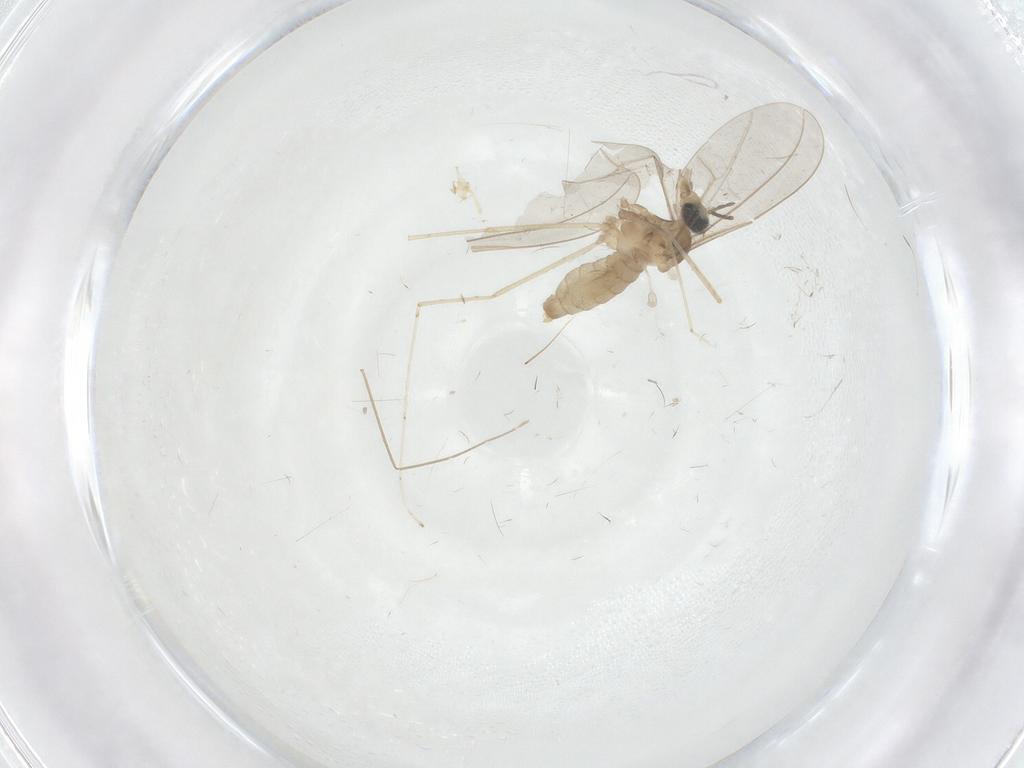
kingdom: Animalia
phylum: Arthropoda
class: Insecta
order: Diptera
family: Cecidomyiidae
